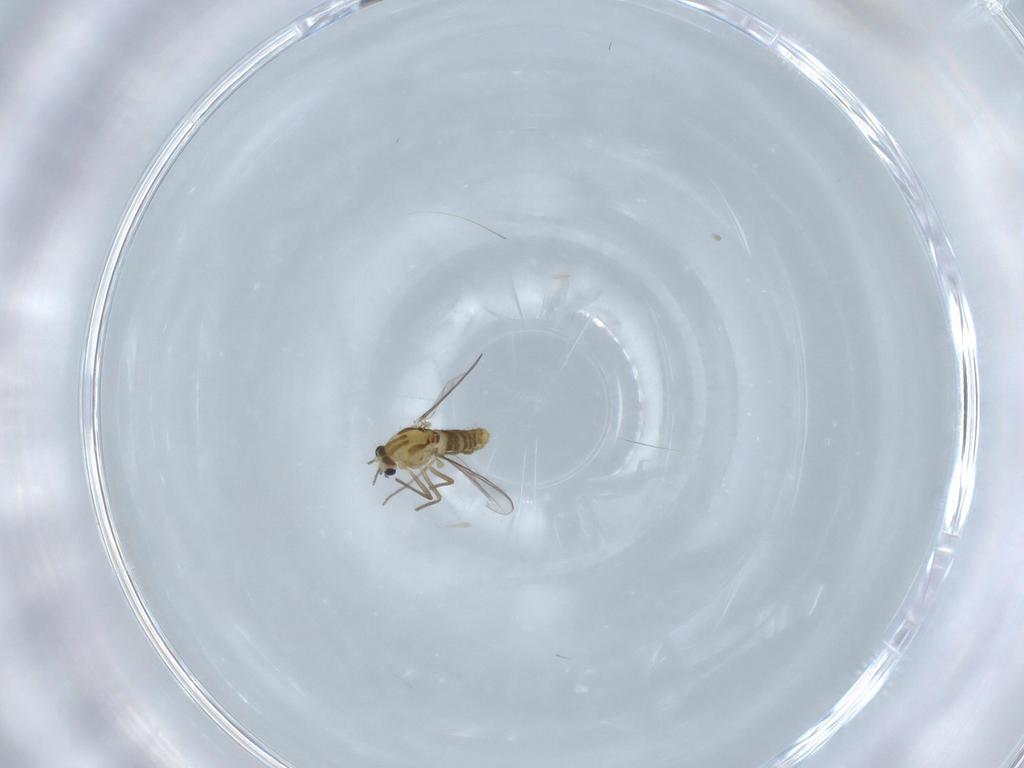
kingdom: Animalia
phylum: Arthropoda
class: Insecta
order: Diptera
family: Chironomidae
